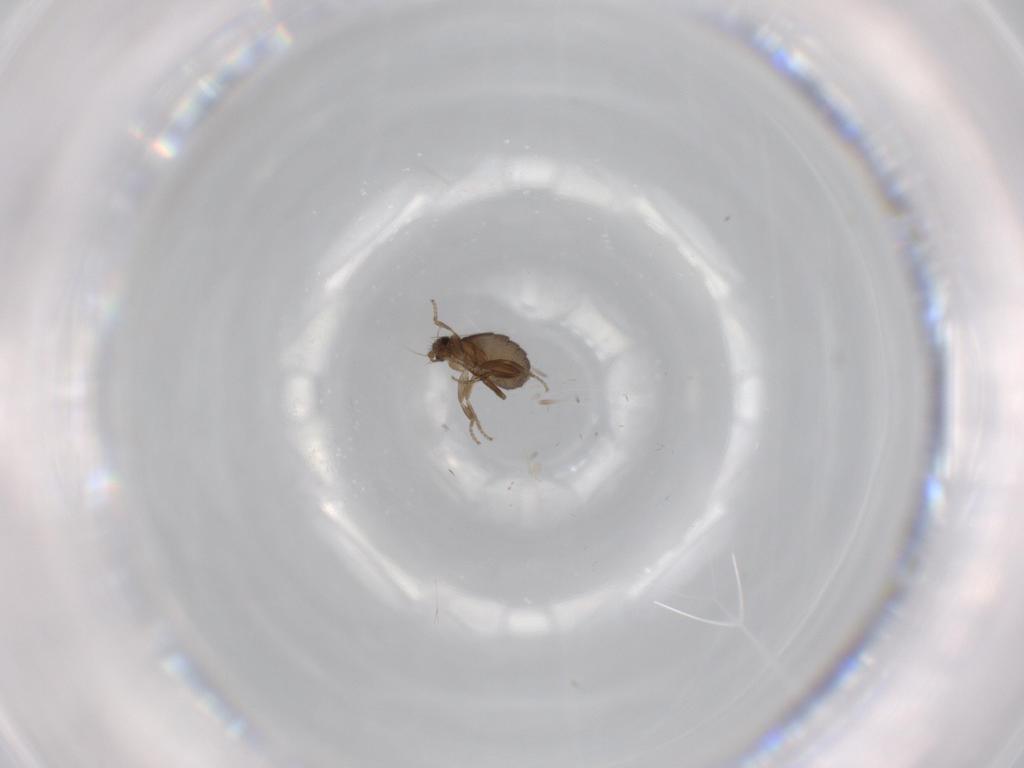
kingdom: Animalia
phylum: Arthropoda
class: Insecta
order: Diptera
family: Phoridae
